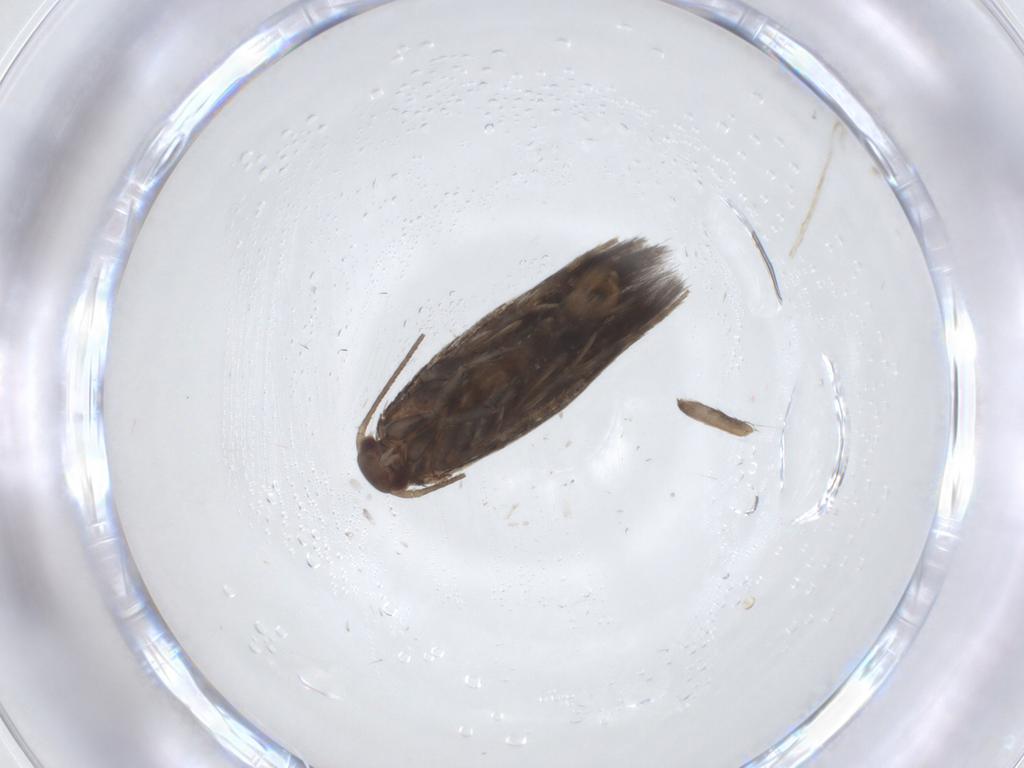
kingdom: Animalia
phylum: Arthropoda
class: Insecta
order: Lepidoptera
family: Elachistidae
